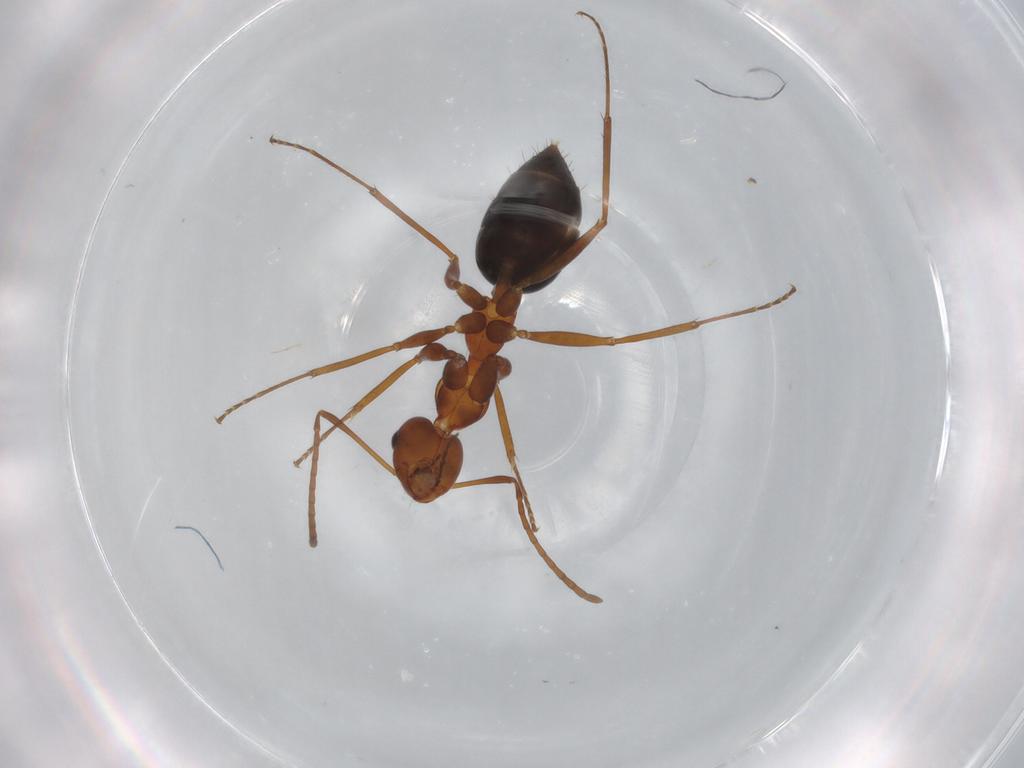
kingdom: Animalia
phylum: Arthropoda
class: Insecta
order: Hymenoptera
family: Formicidae
